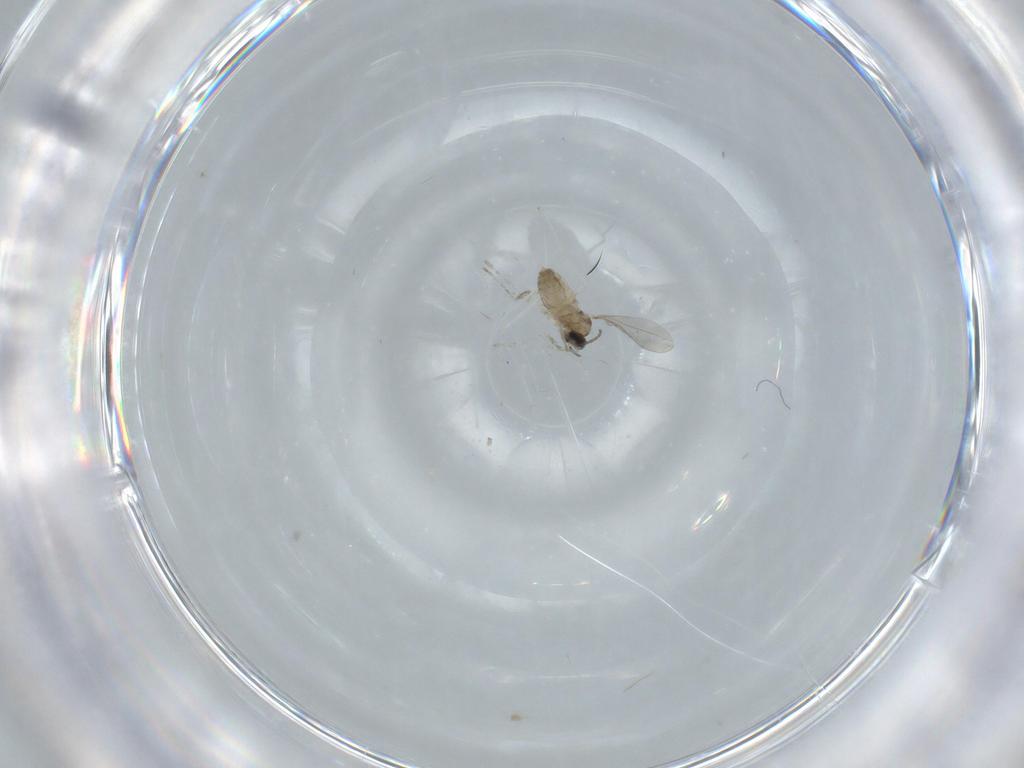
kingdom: Animalia
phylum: Arthropoda
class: Insecta
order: Diptera
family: Cecidomyiidae
